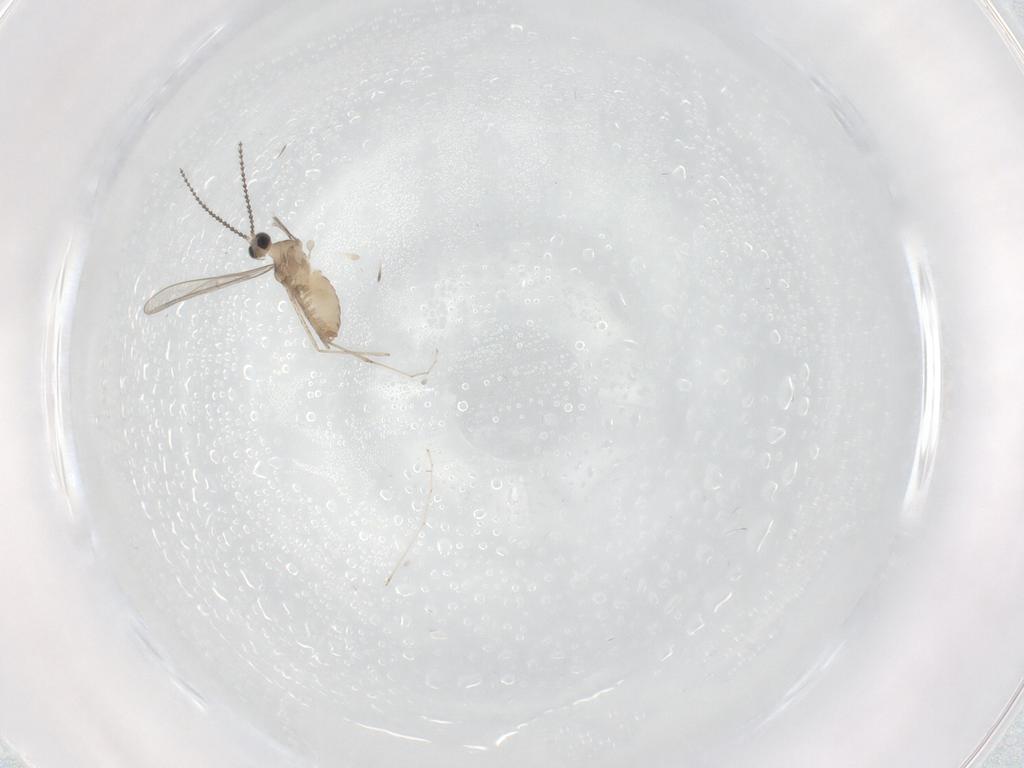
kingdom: Animalia
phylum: Arthropoda
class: Insecta
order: Diptera
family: Cecidomyiidae
